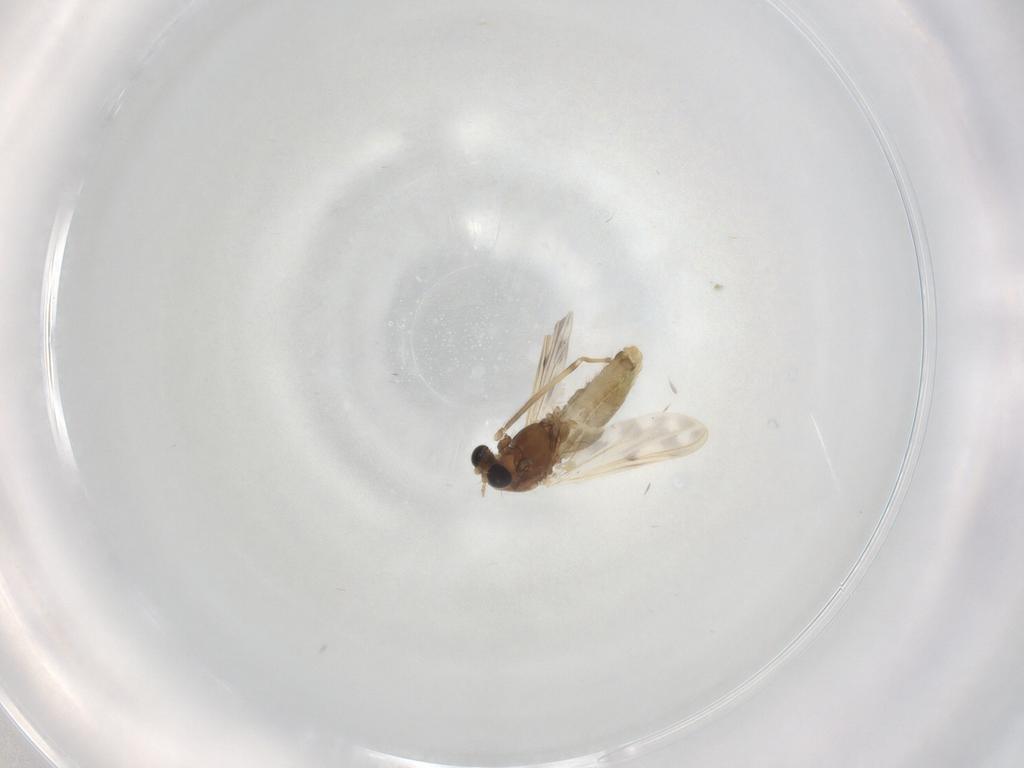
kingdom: Animalia
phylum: Arthropoda
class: Insecta
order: Diptera
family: Chironomidae
